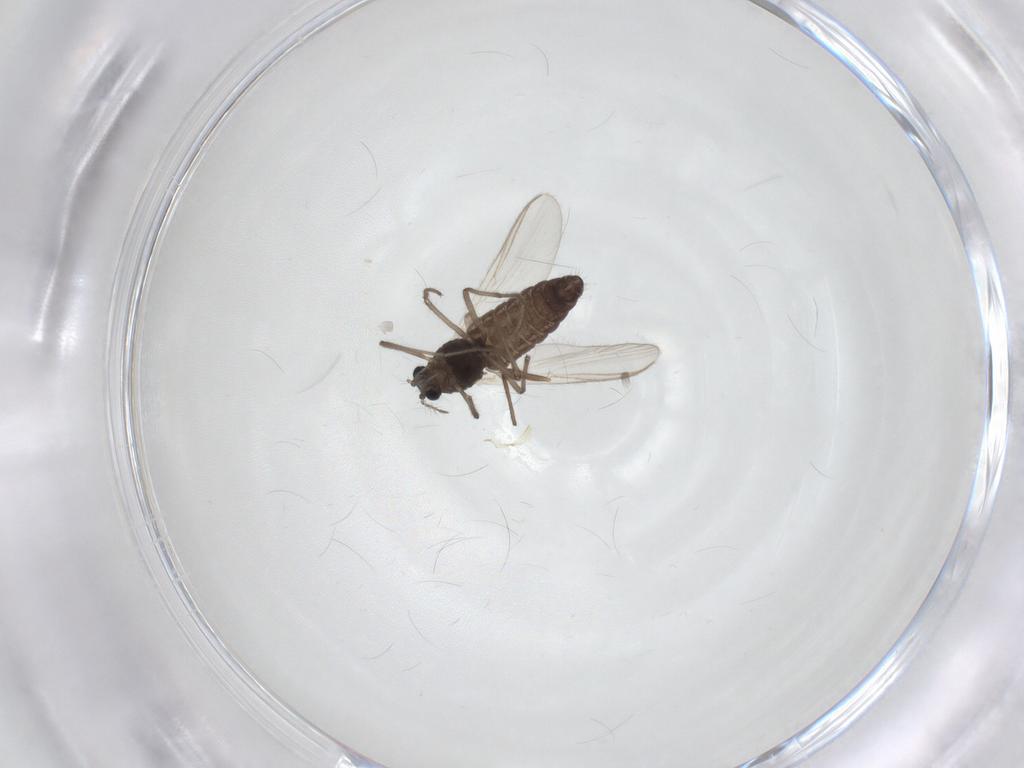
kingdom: Animalia
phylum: Arthropoda
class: Insecta
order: Diptera
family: Chironomidae
